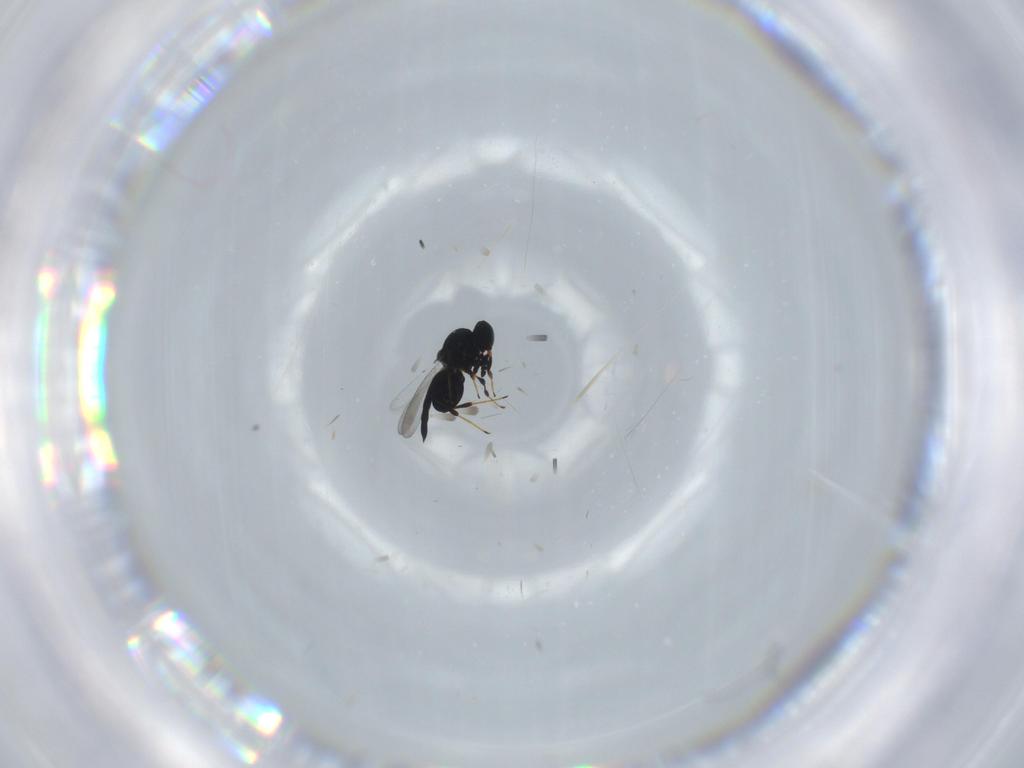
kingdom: Animalia
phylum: Arthropoda
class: Insecta
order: Hymenoptera
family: Platygastridae
